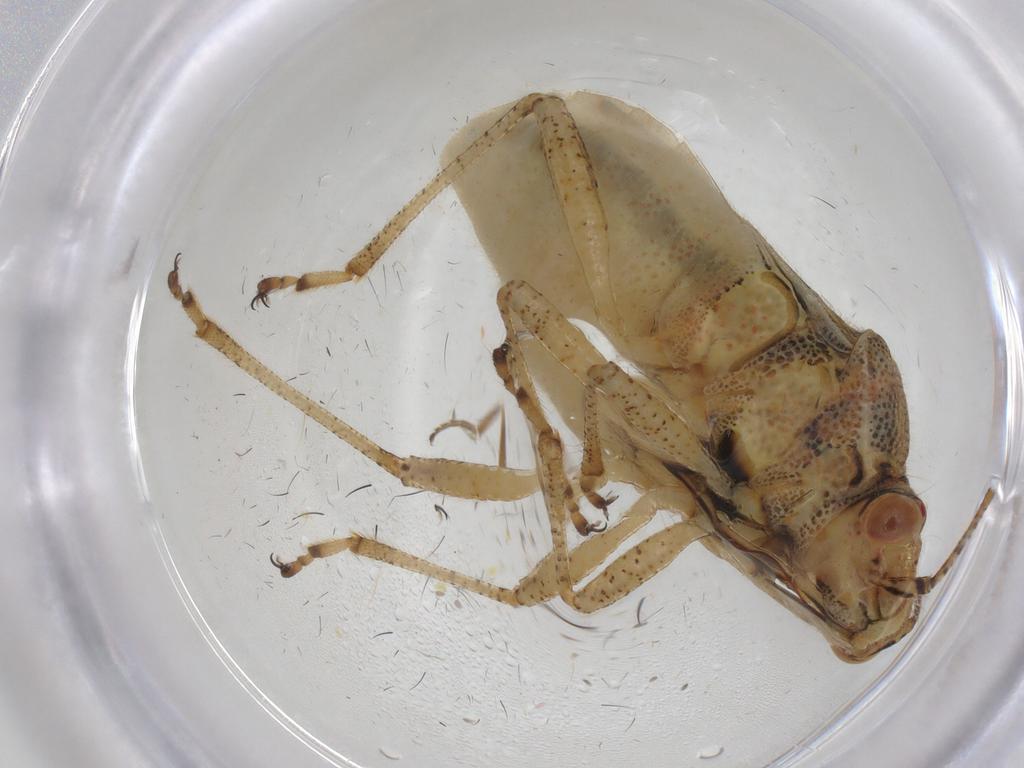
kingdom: Animalia
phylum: Arthropoda
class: Insecta
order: Hemiptera
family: Rhopalidae
